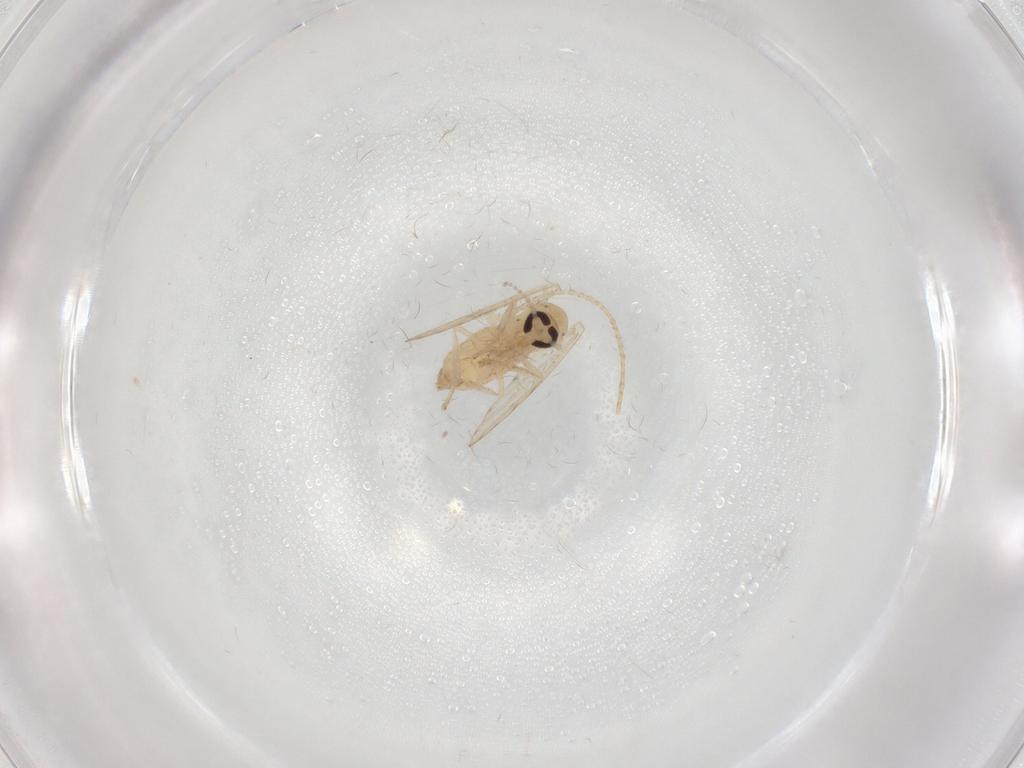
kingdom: Animalia
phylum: Arthropoda
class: Insecta
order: Diptera
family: Psychodidae
